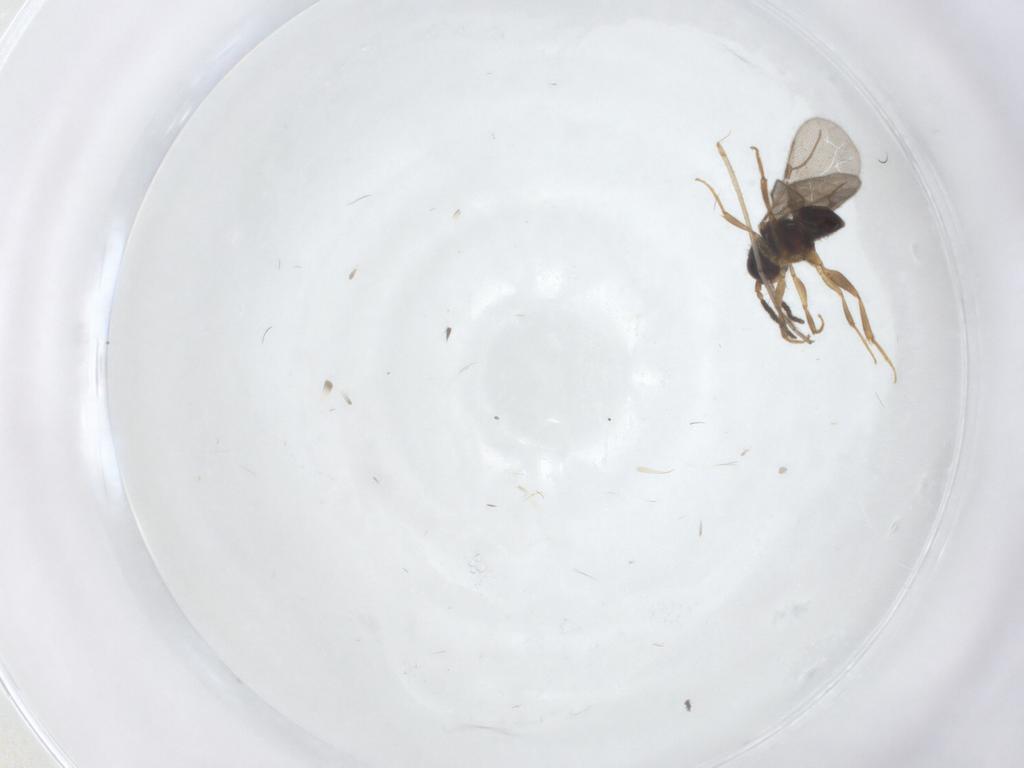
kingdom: Animalia
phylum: Arthropoda
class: Insecta
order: Hymenoptera
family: Bethylidae
